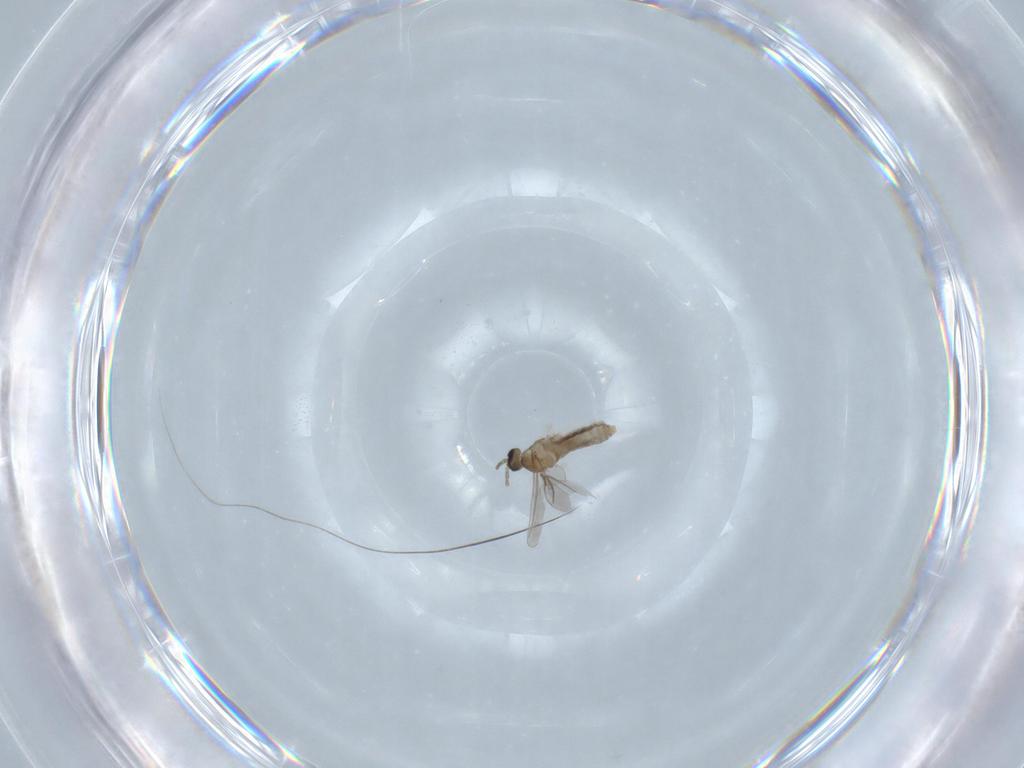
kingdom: Animalia
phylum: Arthropoda
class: Insecta
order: Diptera
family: Cecidomyiidae
